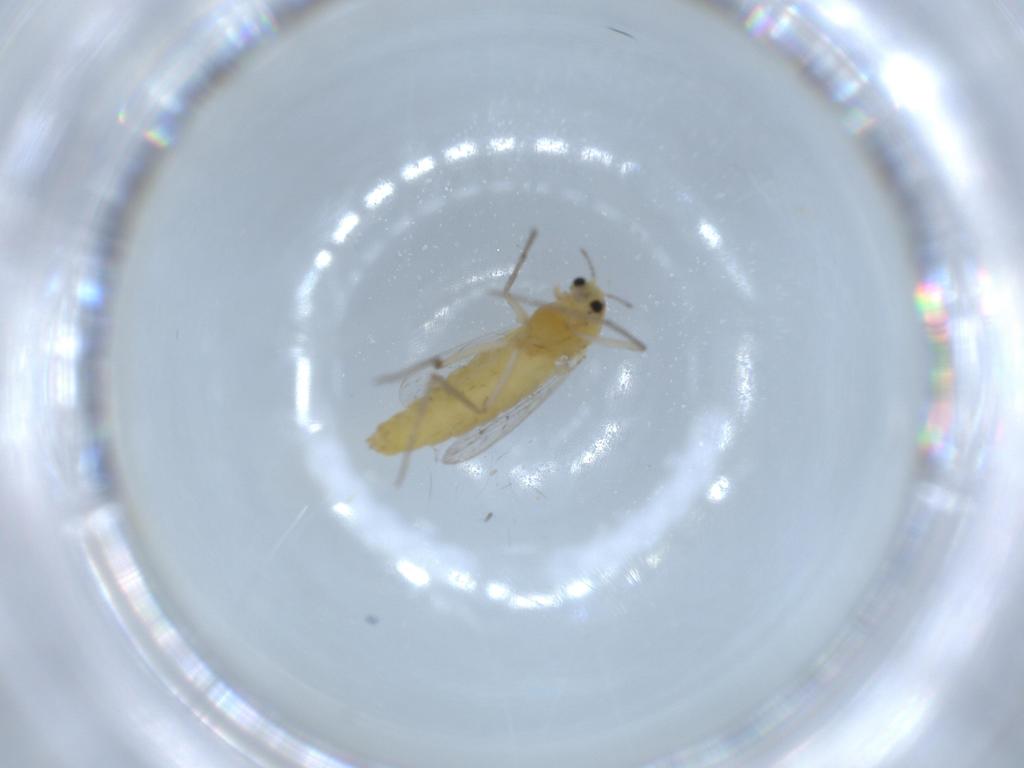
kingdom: Animalia
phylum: Arthropoda
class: Insecta
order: Diptera
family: Chironomidae
